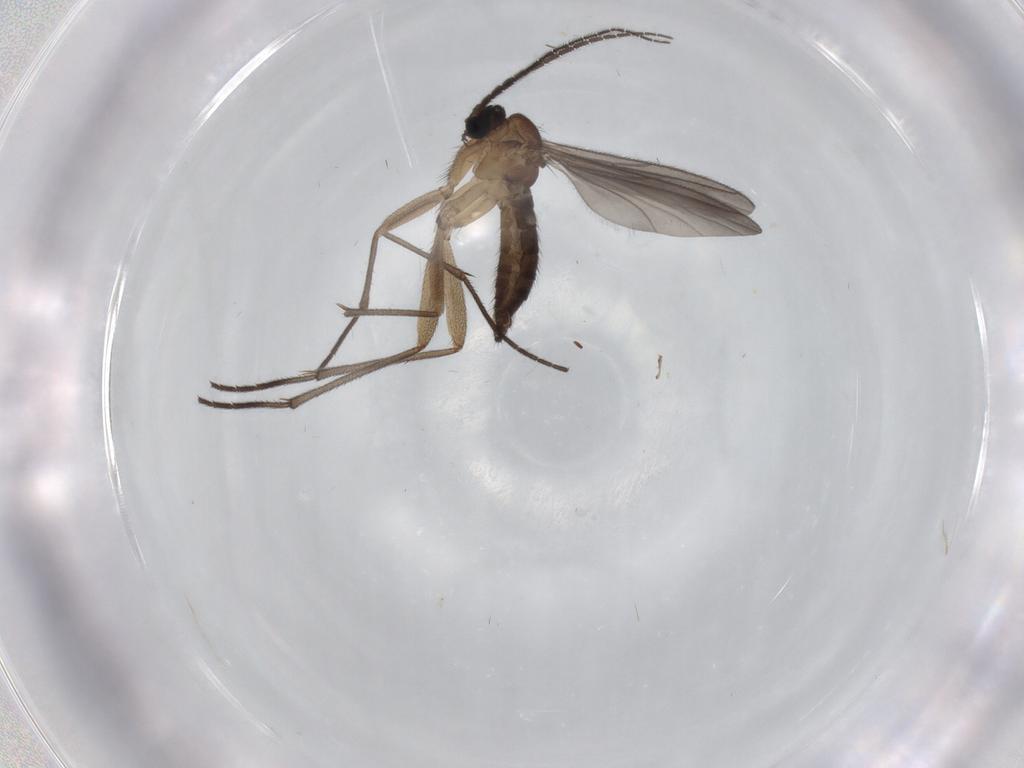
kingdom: Animalia
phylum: Arthropoda
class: Insecta
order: Diptera
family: Sciaridae
